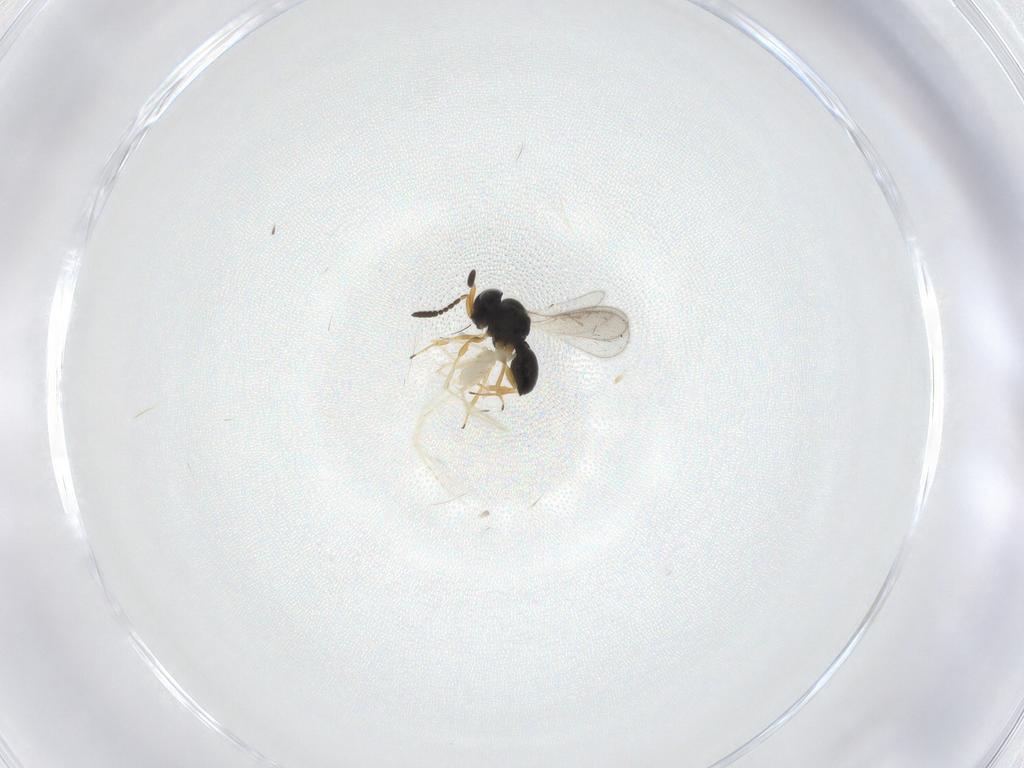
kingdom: Animalia
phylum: Arthropoda
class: Insecta
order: Hymenoptera
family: Scelionidae
